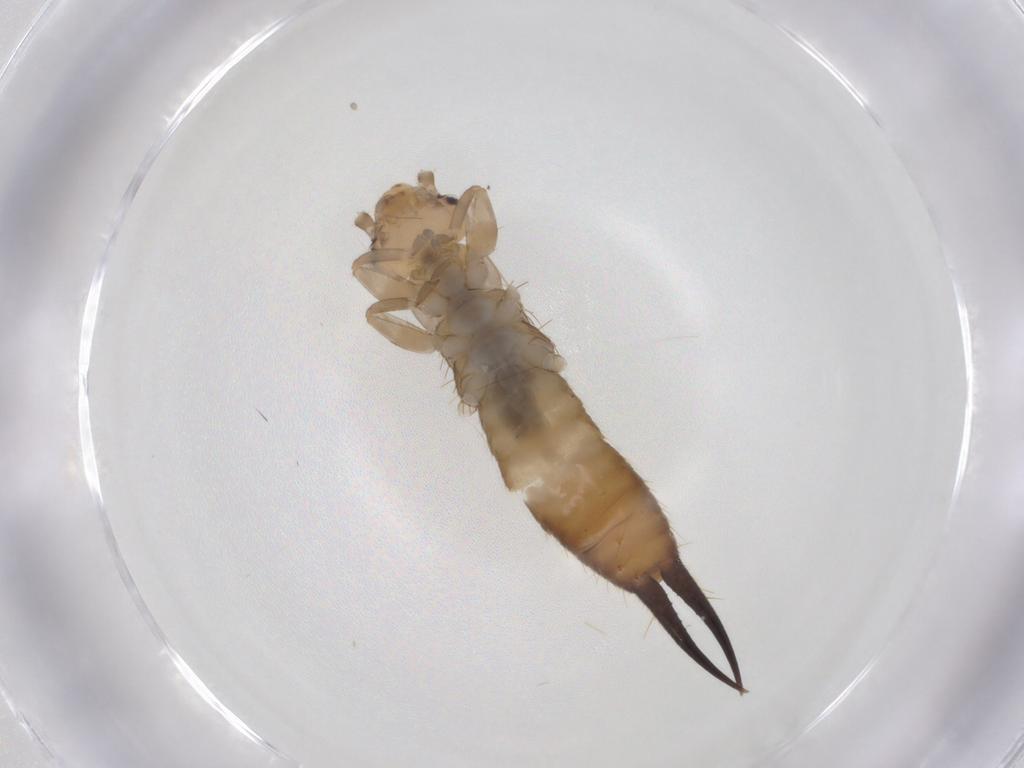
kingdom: Animalia
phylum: Arthropoda
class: Insecta
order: Dermaptera
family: Anisolabididae
